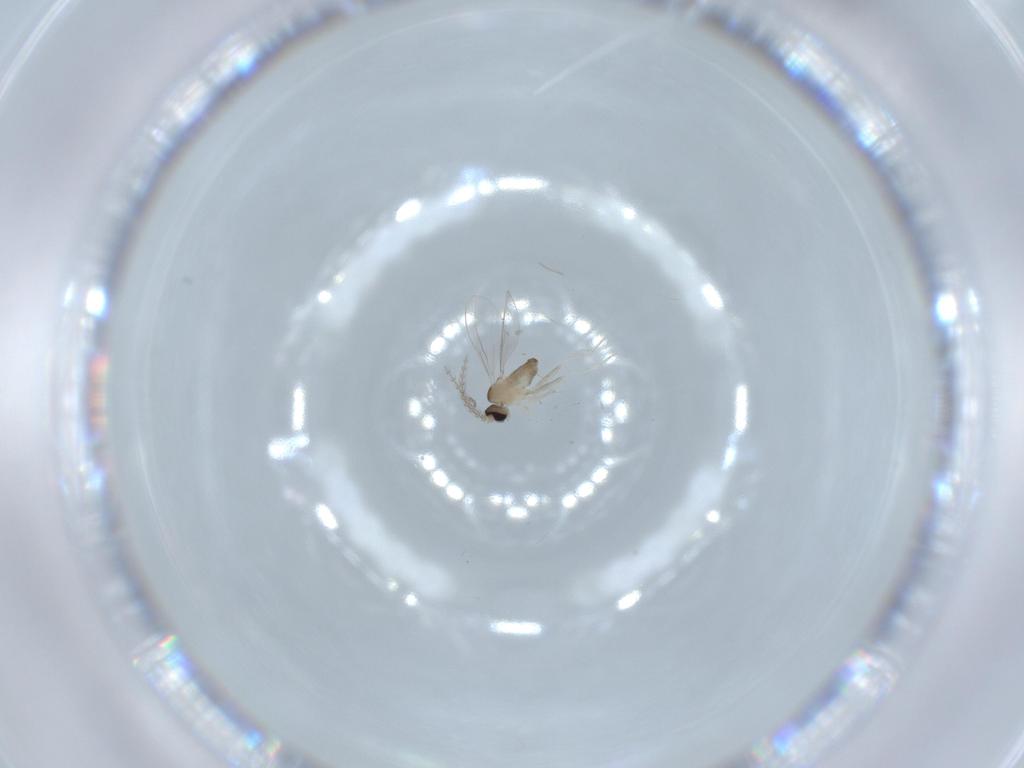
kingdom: Animalia
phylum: Arthropoda
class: Insecta
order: Diptera
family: Cecidomyiidae
